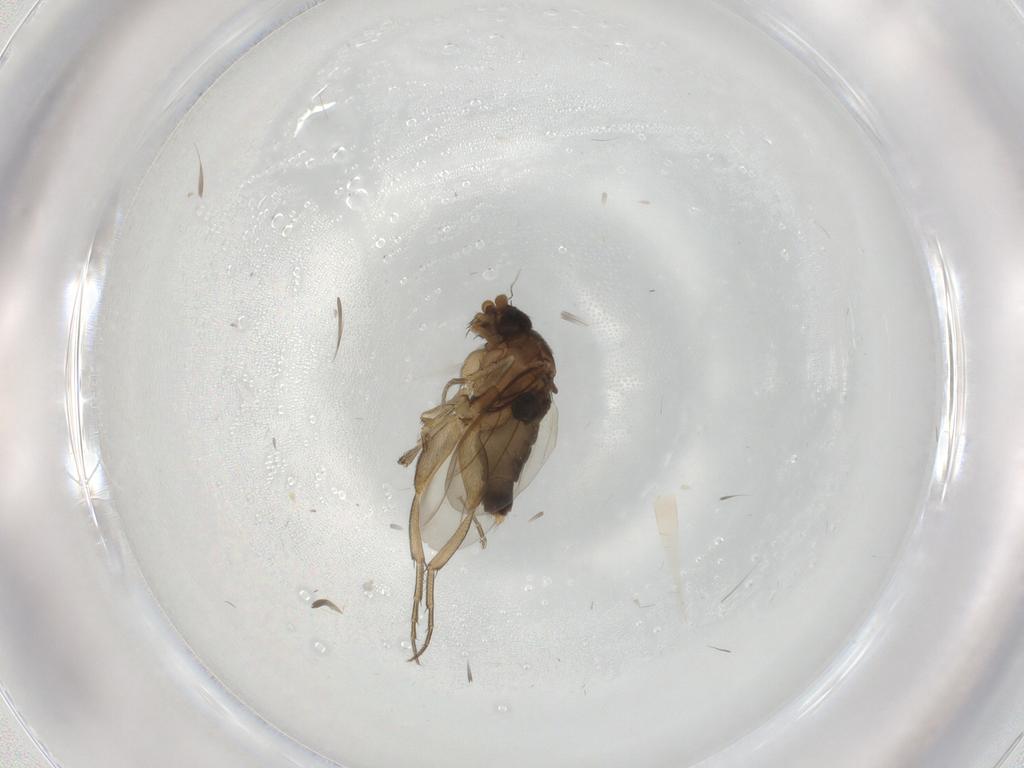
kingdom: Animalia
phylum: Arthropoda
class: Insecta
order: Diptera
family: Phoridae
